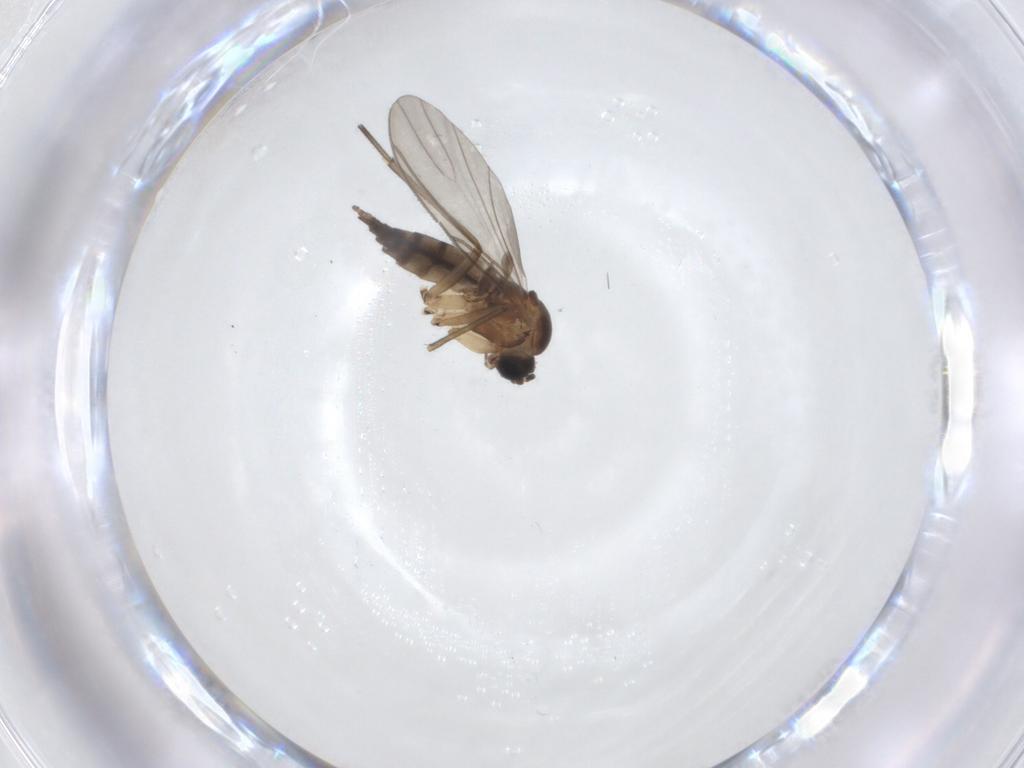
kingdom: Animalia
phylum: Arthropoda
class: Insecta
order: Diptera
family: Sciaridae
